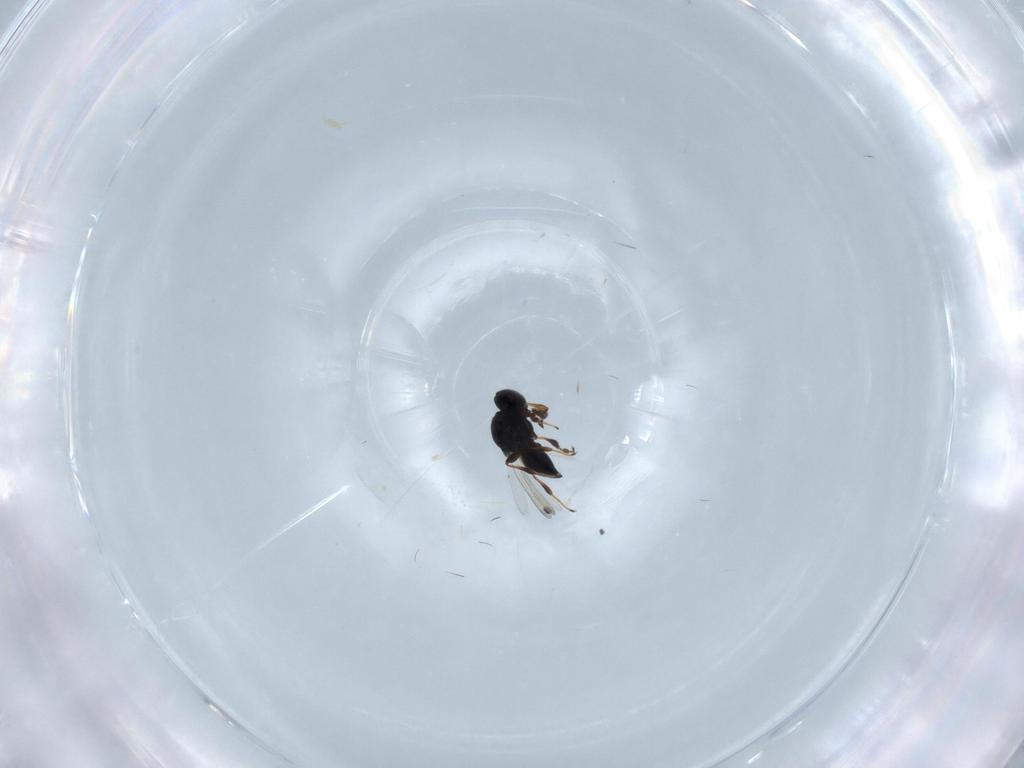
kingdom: Animalia
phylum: Arthropoda
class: Insecta
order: Hymenoptera
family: Platygastridae
